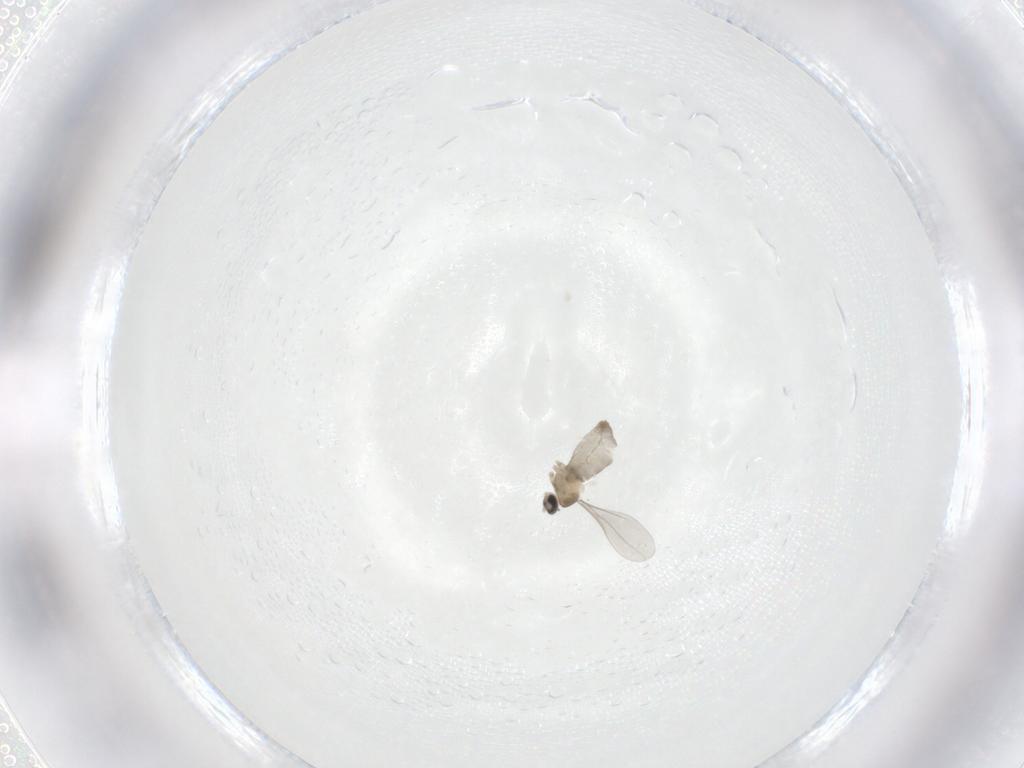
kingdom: Animalia
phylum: Arthropoda
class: Insecta
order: Diptera
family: Cecidomyiidae
